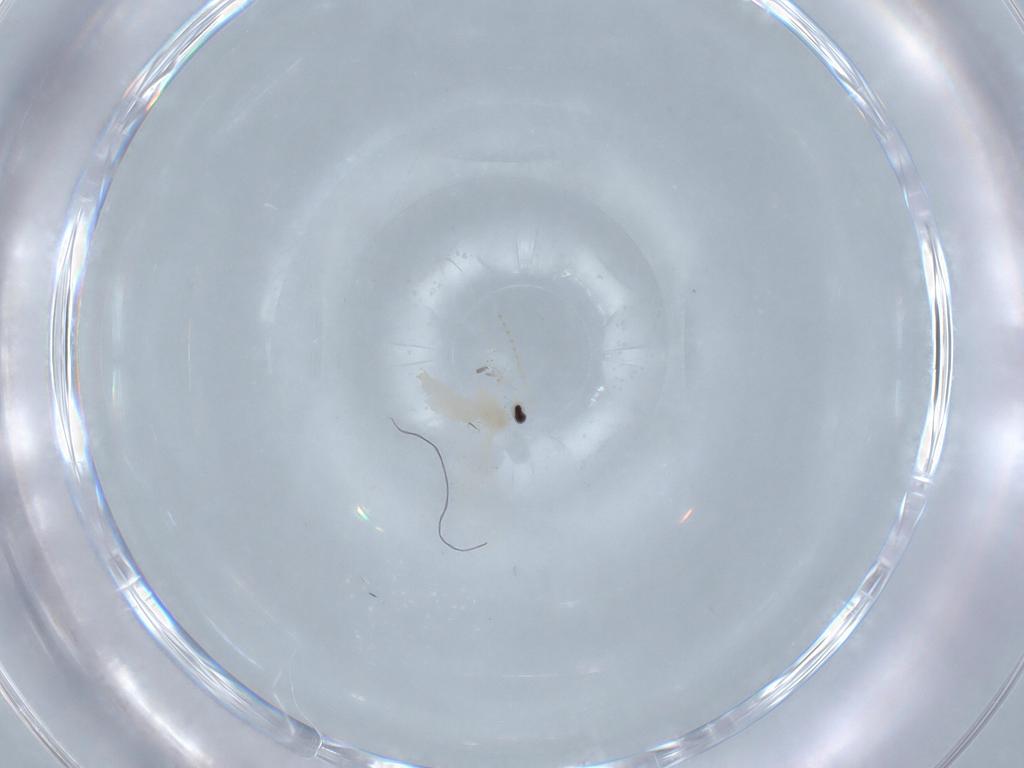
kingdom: Animalia
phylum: Arthropoda
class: Insecta
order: Diptera
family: Cecidomyiidae
